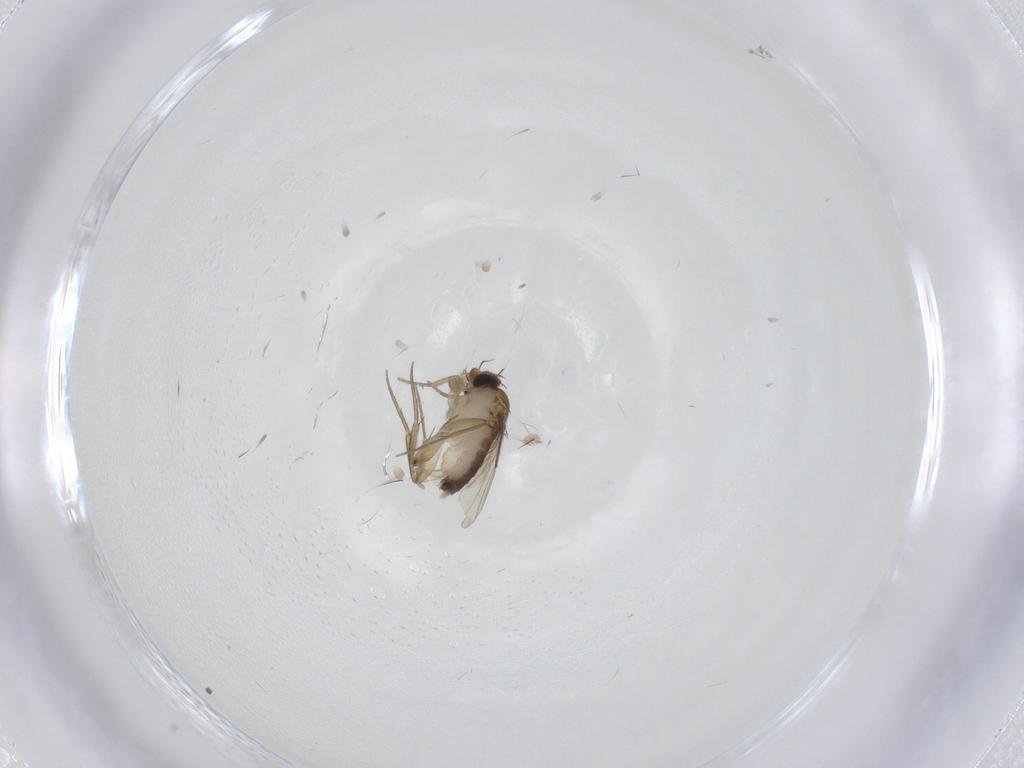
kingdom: Animalia
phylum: Arthropoda
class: Insecta
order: Diptera
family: Phoridae
